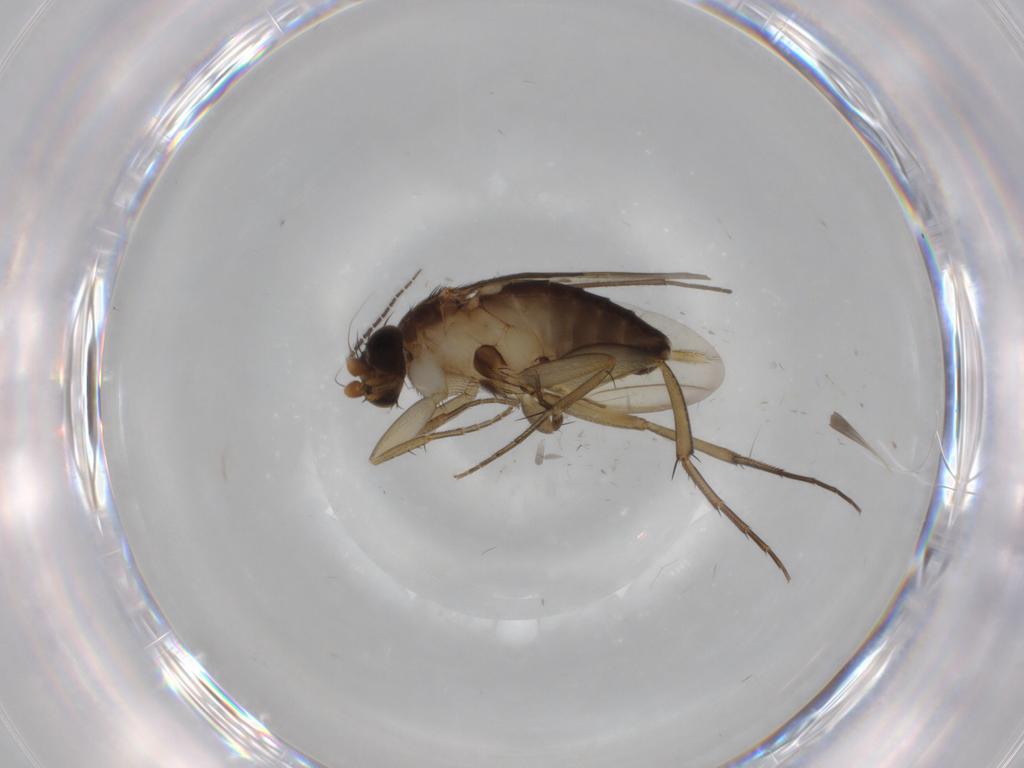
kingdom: Animalia
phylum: Arthropoda
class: Insecta
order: Diptera
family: Phoridae
